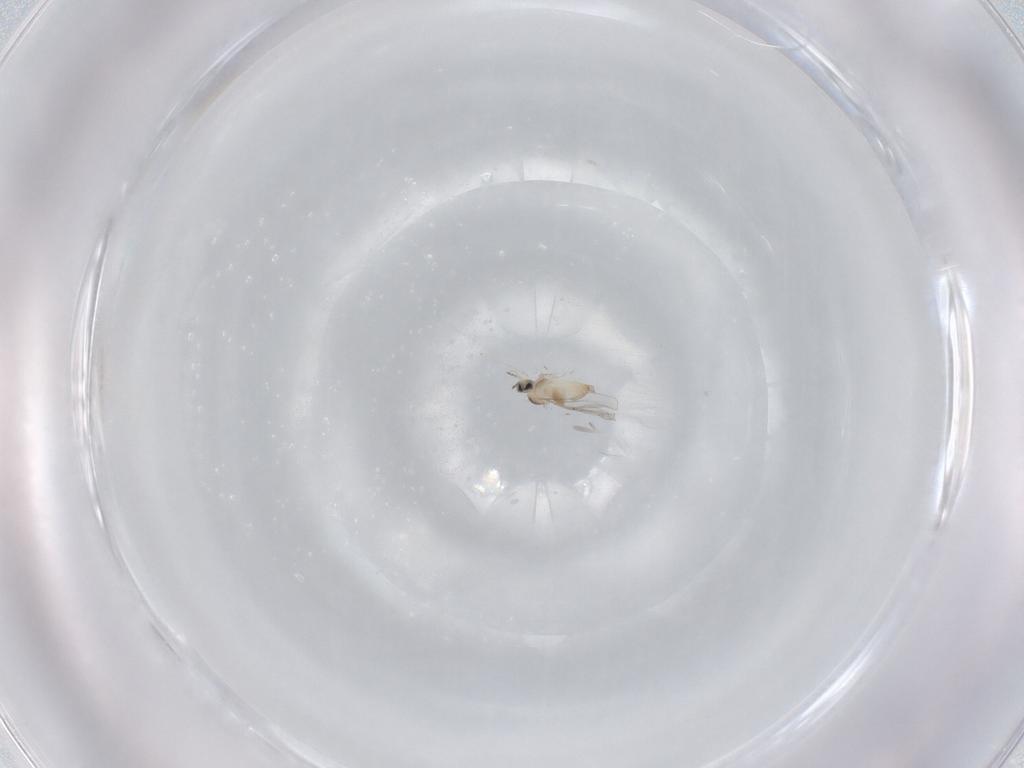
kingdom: Animalia
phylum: Arthropoda
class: Insecta
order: Diptera
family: Cecidomyiidae
